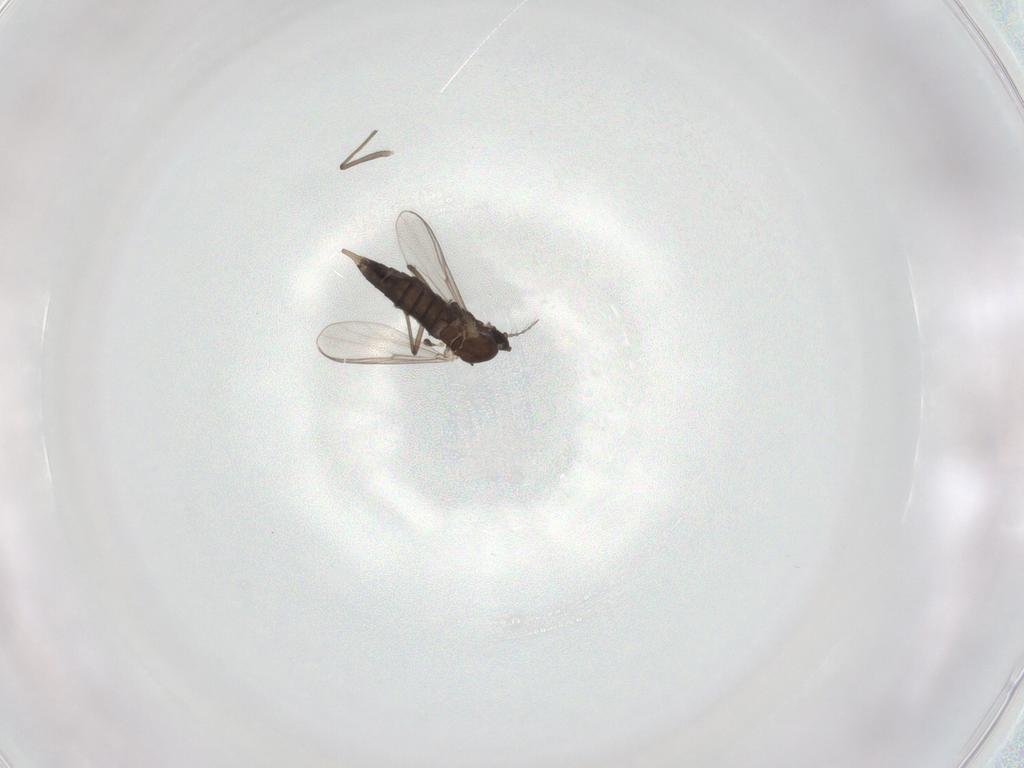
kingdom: Animalia
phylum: Arthropoda
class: Insecta
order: Diptera
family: Chironomidae
